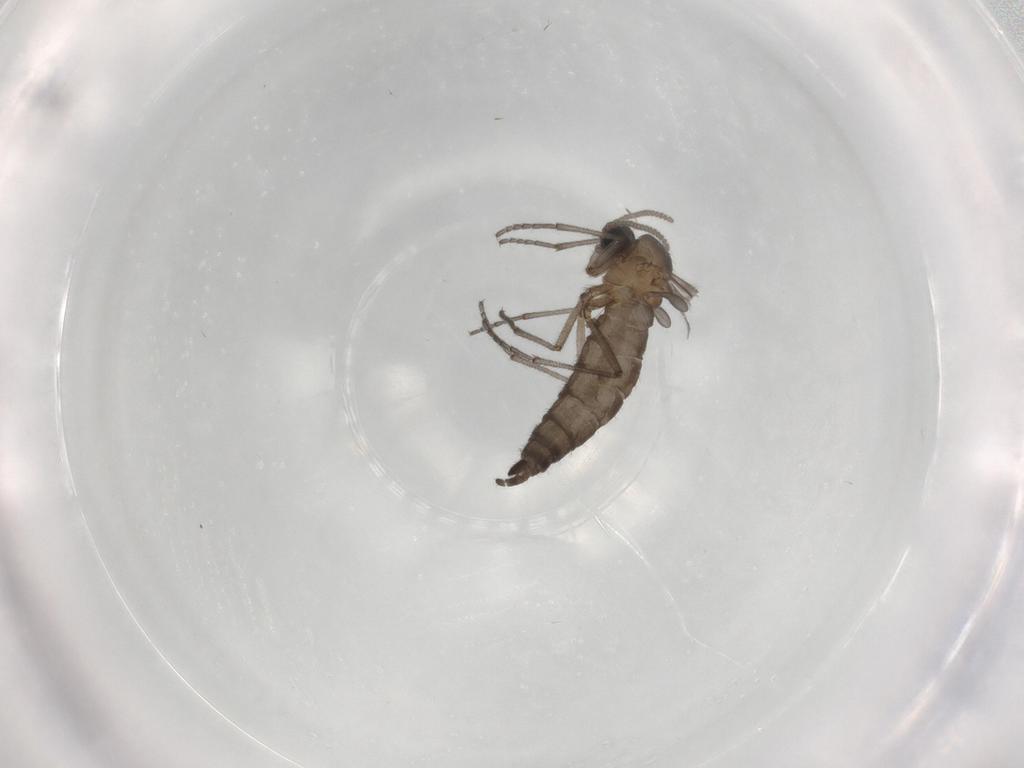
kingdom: Animalia
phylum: Arthropoda
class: Insecta
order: Diptera
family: Sciaridae
